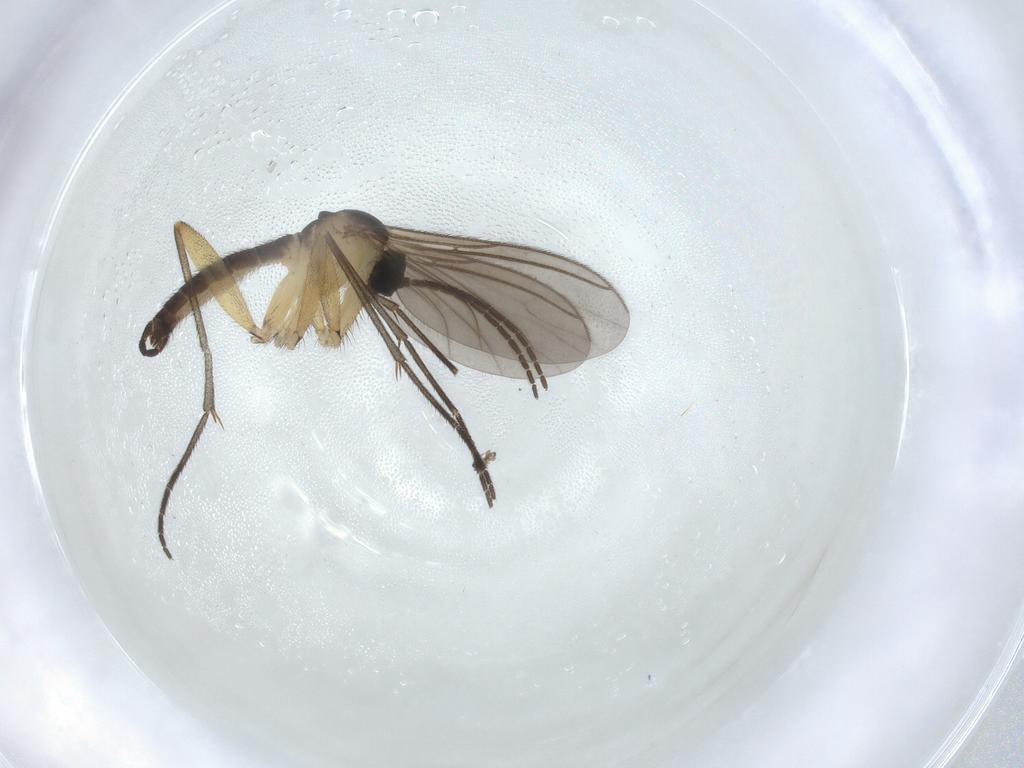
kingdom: Animalia
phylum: Arthropoda
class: Insecta
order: Diptera
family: Sciaridae
